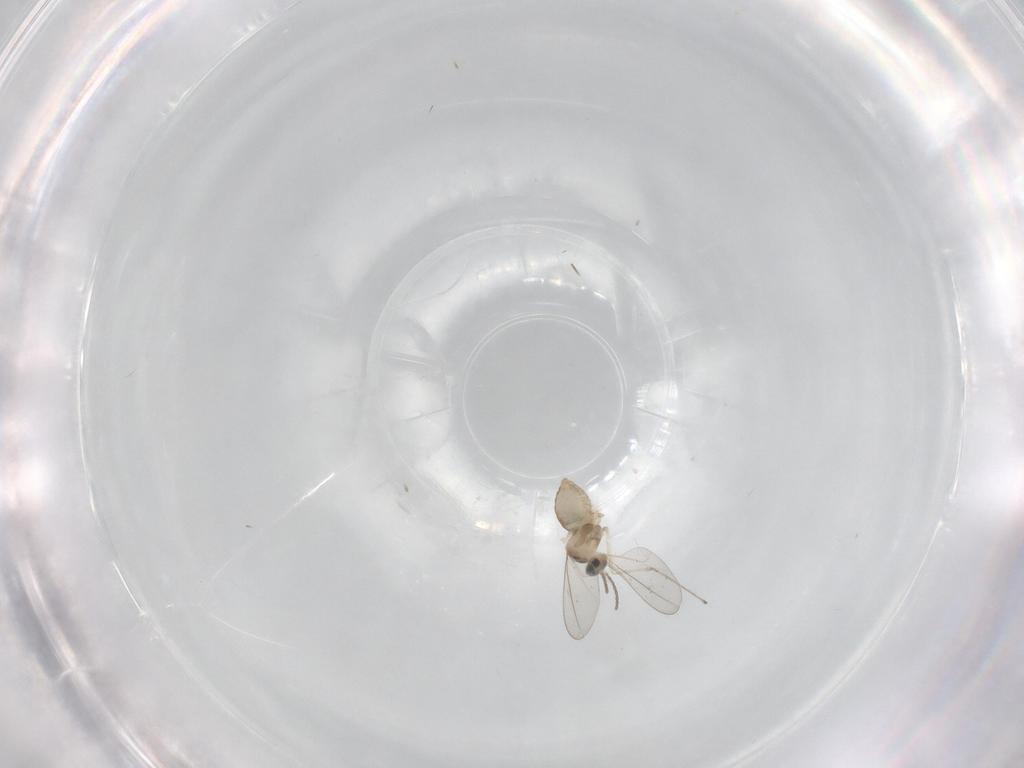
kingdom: Animalia
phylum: Arthropoda
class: Insecta
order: Diptera
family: Cecidomyiidae
